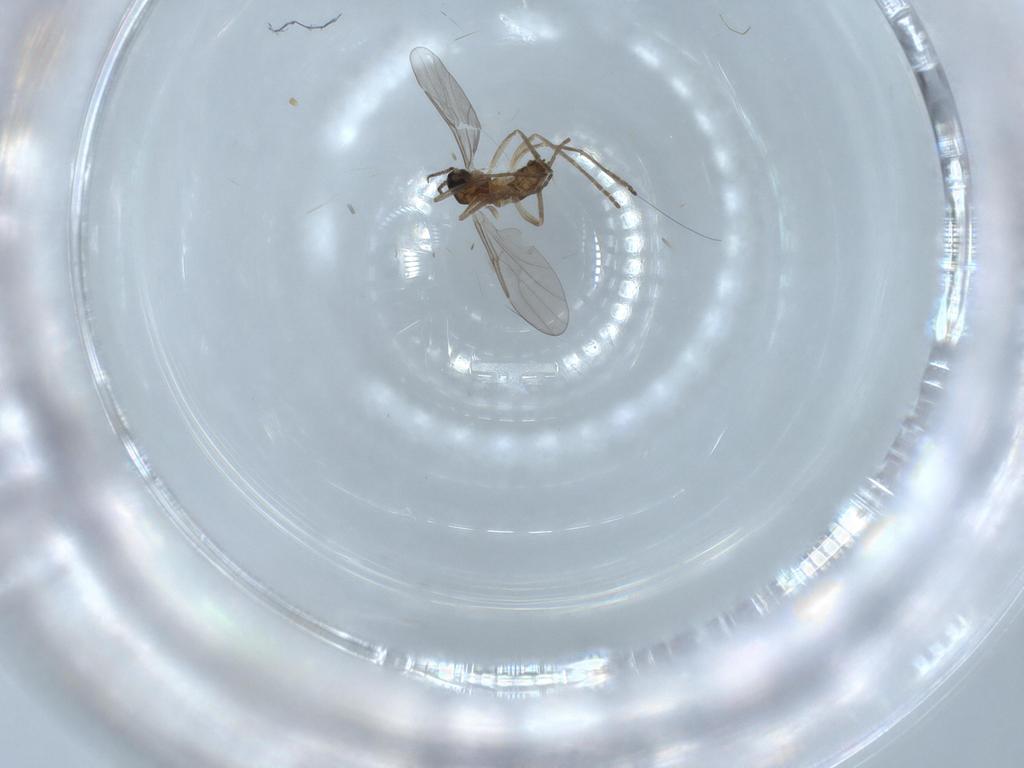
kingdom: Animalia
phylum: Arthropoda
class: Insecta
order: Diptera
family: Cecidomyiidae
